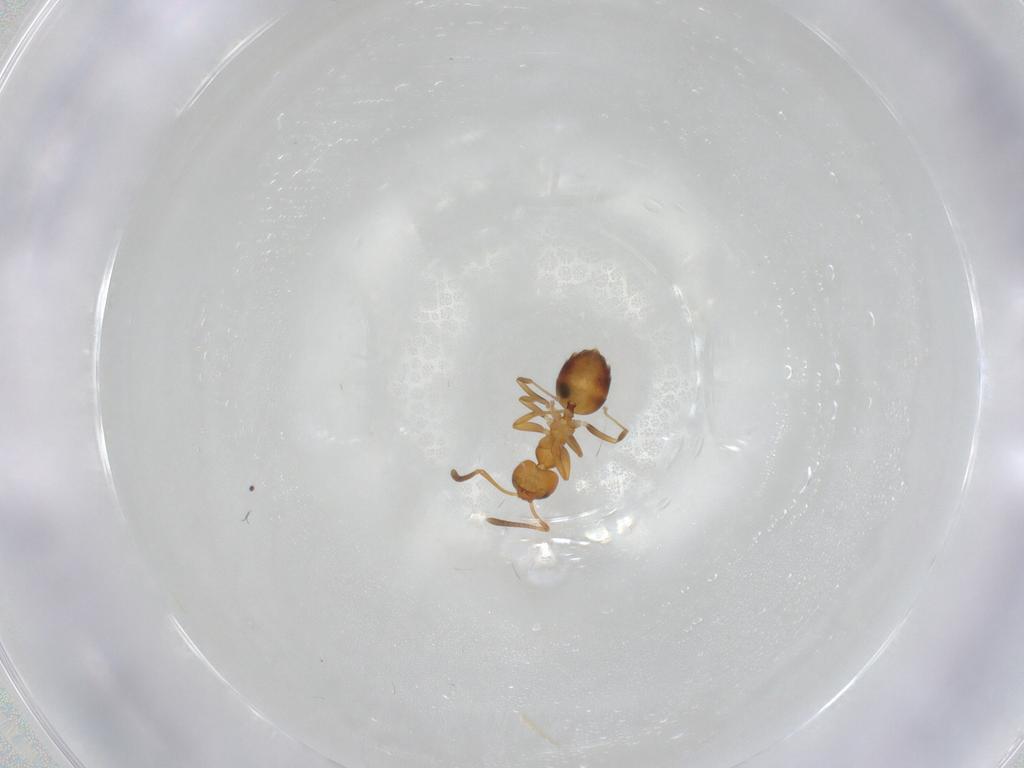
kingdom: Animalia
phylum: Arthropoda
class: Insecta
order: Hymenoptera
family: Formicidae
